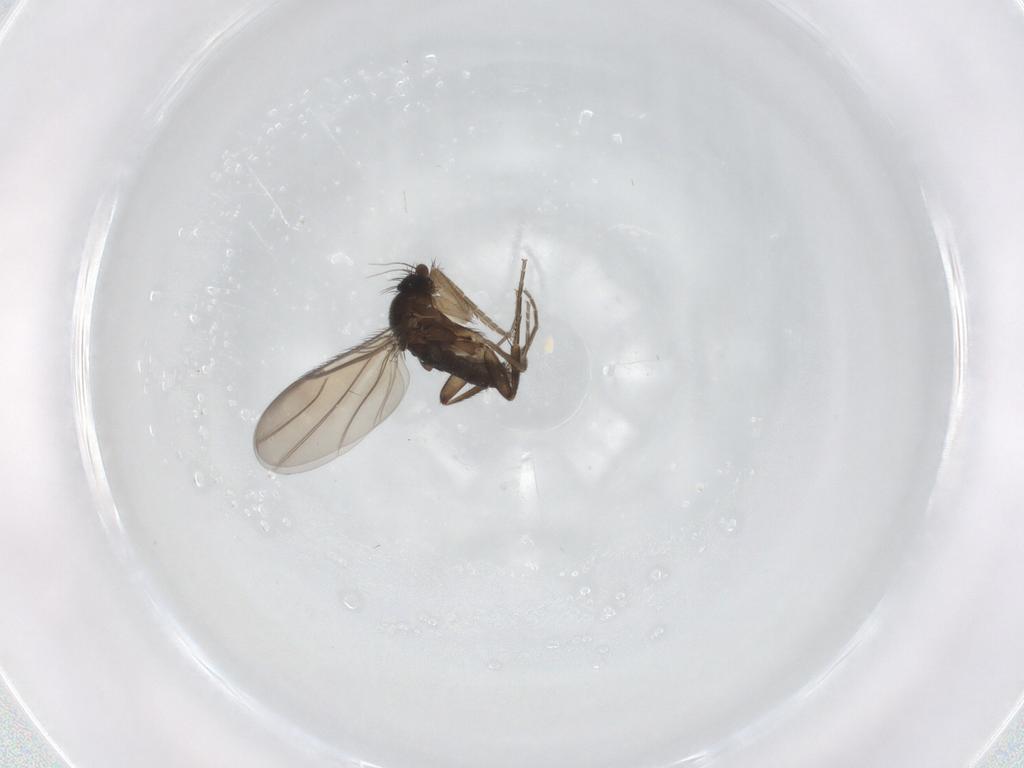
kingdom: Animalia
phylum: Arthropoda
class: Insecta
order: Diptera
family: Phoridae
